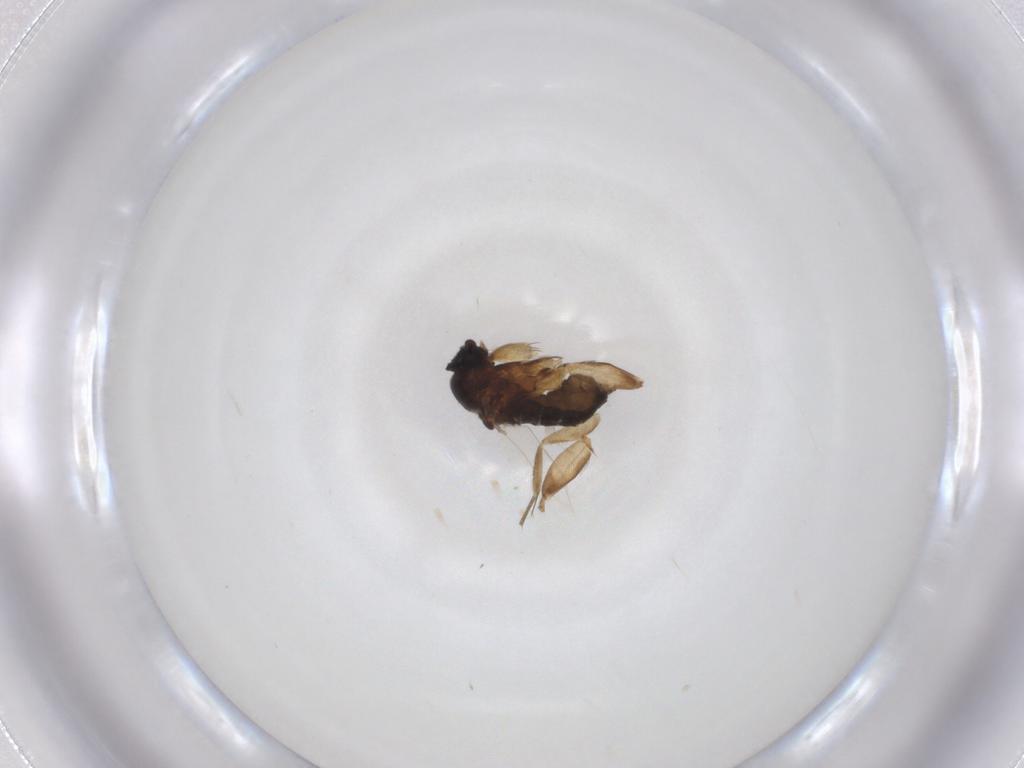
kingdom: Animalia
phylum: Arthropoda
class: Insecta
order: Diptera
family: Phoridae
